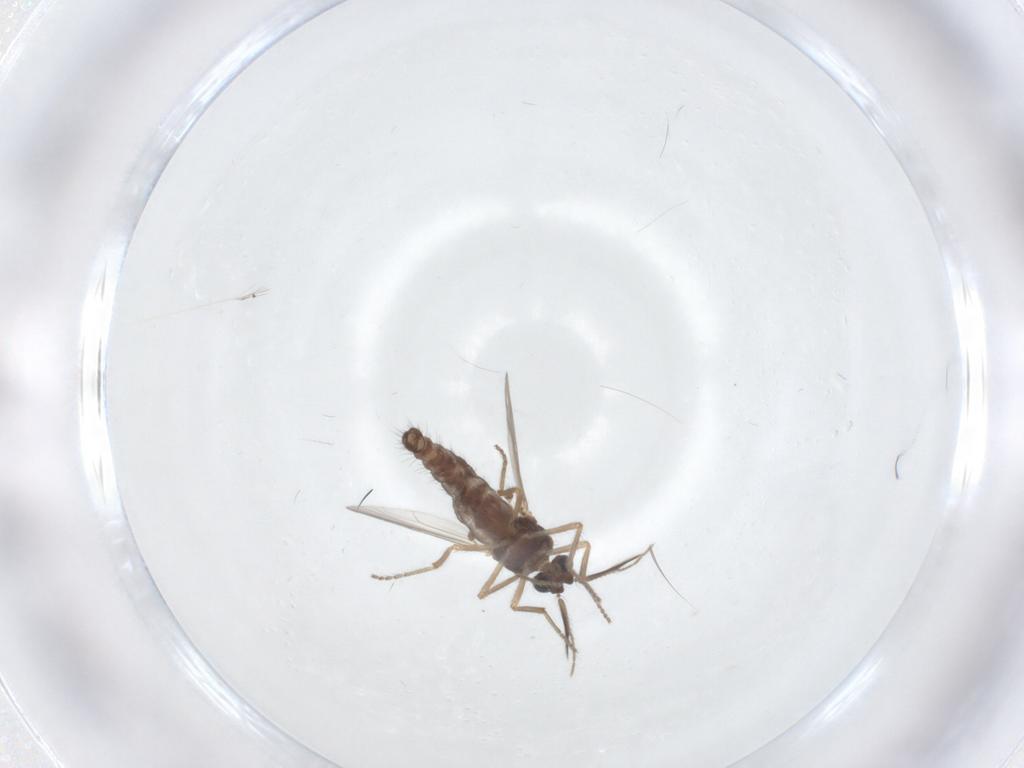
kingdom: Animalia
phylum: Arthropoda
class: Insecta
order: Diptera
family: Ceratopogonidae
